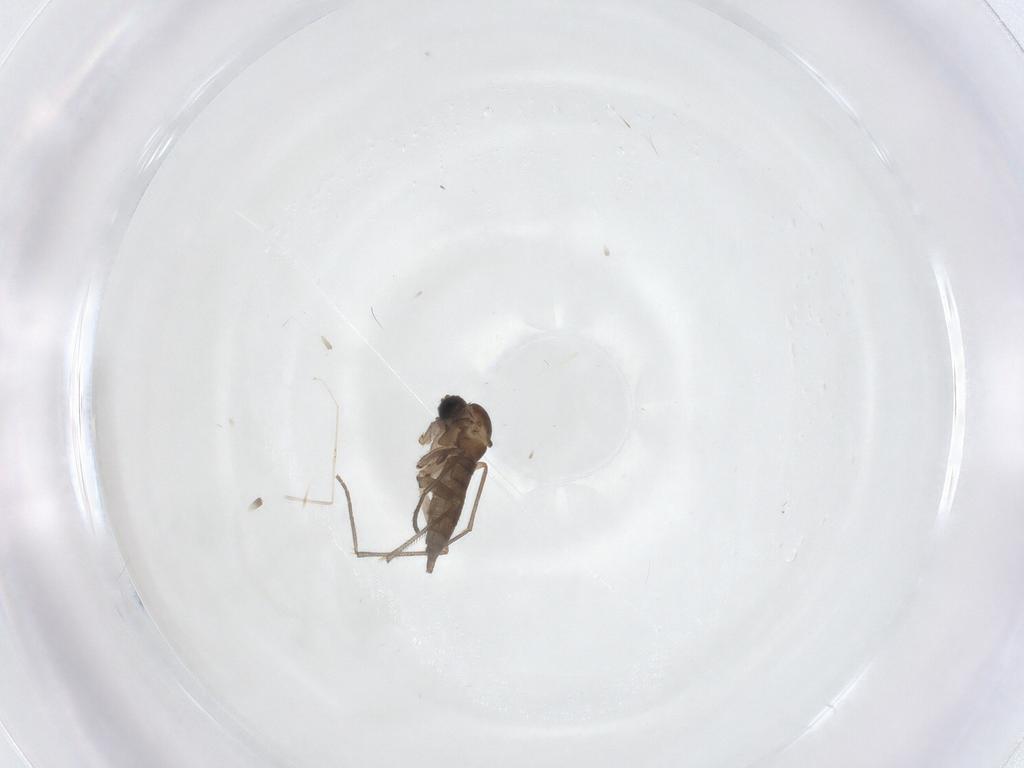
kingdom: Animalia
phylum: Arthropoda
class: Insecta
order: Diptera
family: Sciaridae
